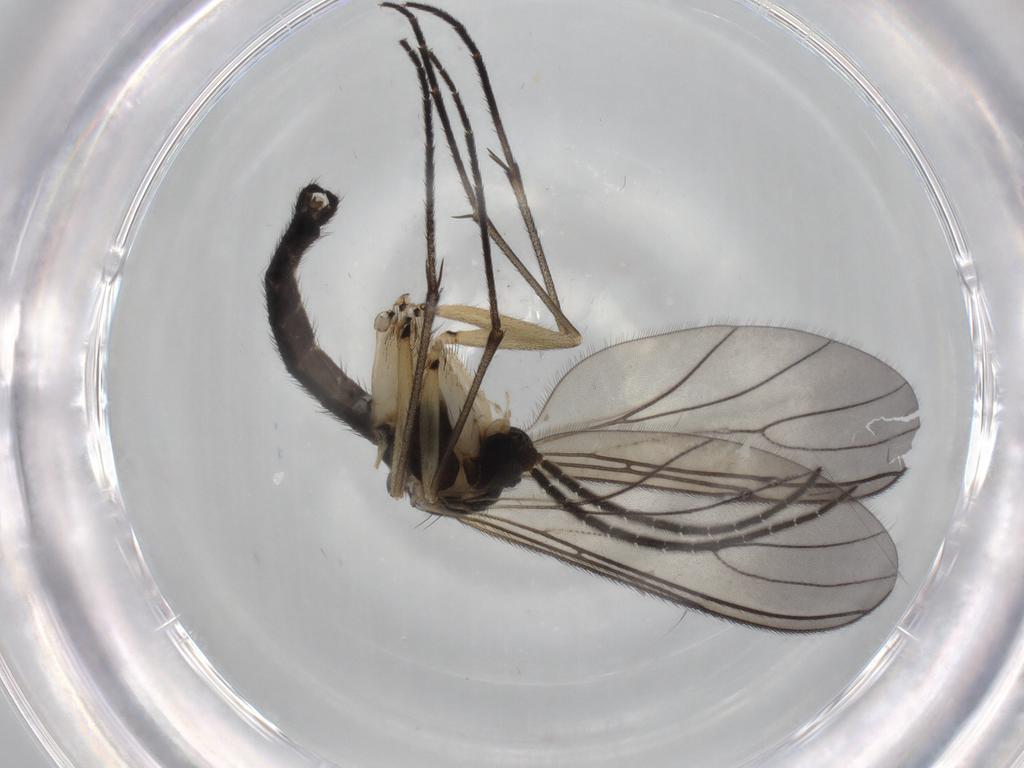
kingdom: Animalia
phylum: Arthropoda
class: Insecta
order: Diptera
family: Sciaridae
